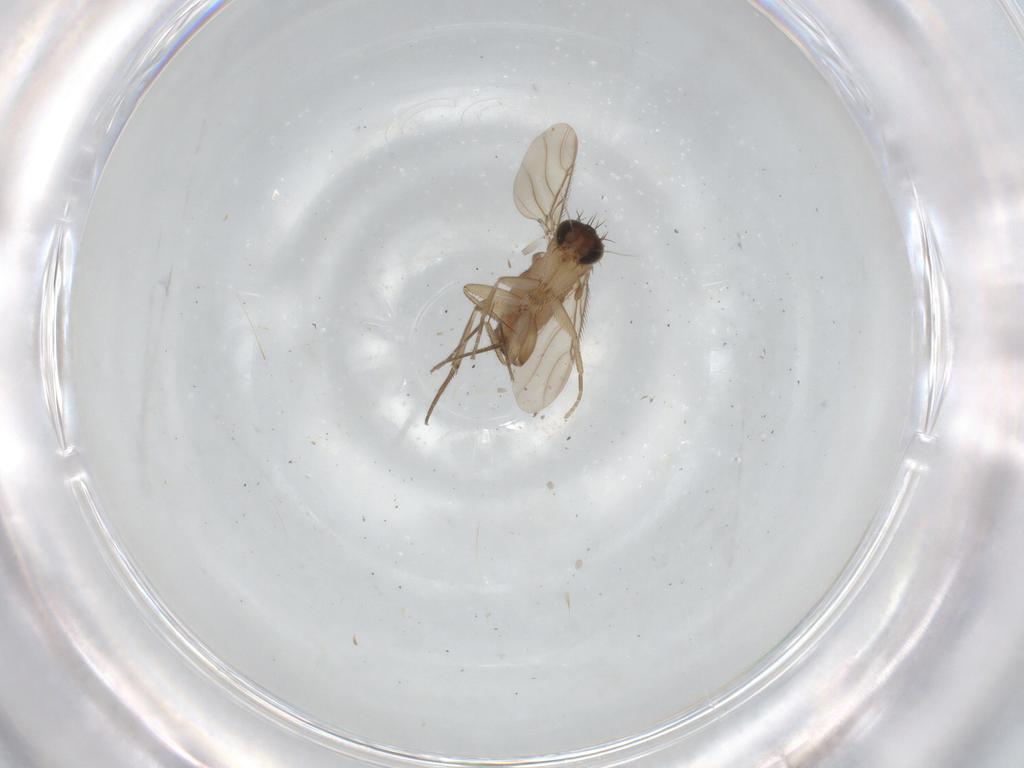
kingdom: Animalia
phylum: Arthropoda
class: Insecta
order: Diptera
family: Phoridae
